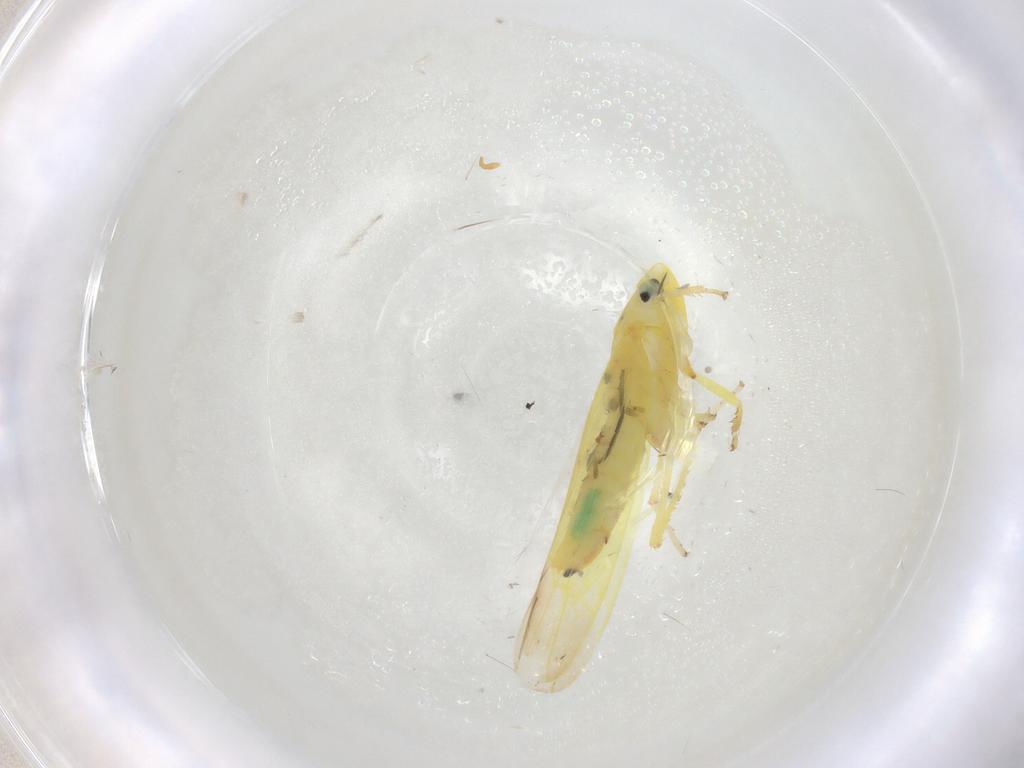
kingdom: Animalia
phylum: Arthropoda
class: Insecta
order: Hemiptera
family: Cicadellidae
